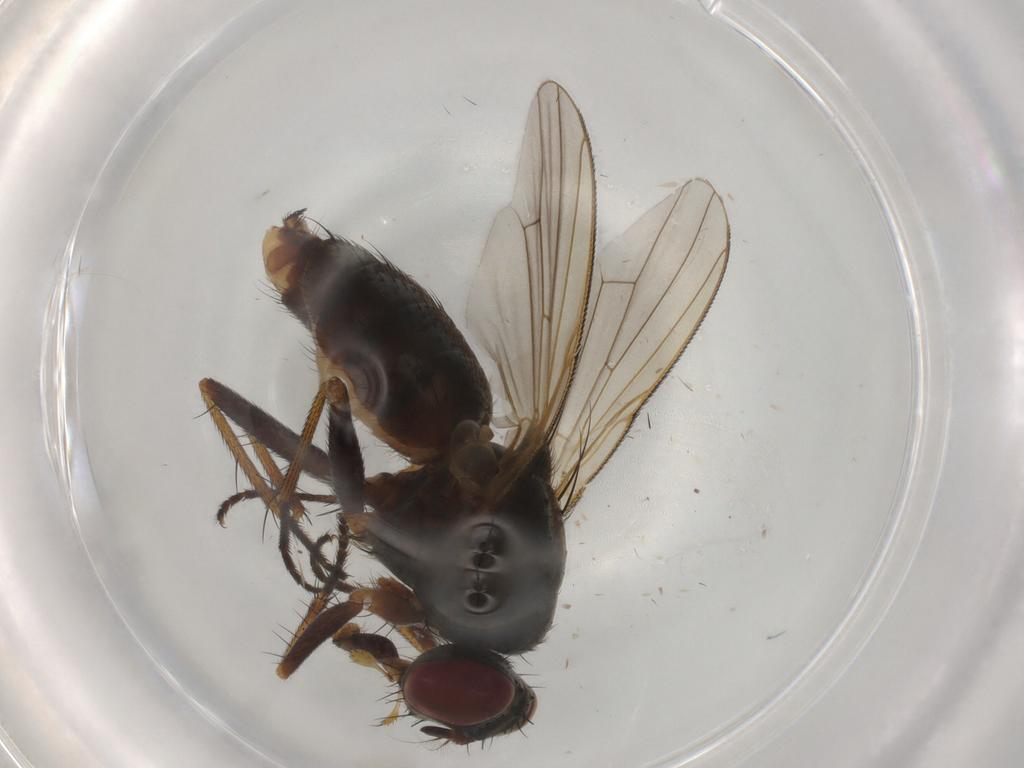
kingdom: Animalia
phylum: Arthropoda
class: Insecta
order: Diptera
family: Muscidae
